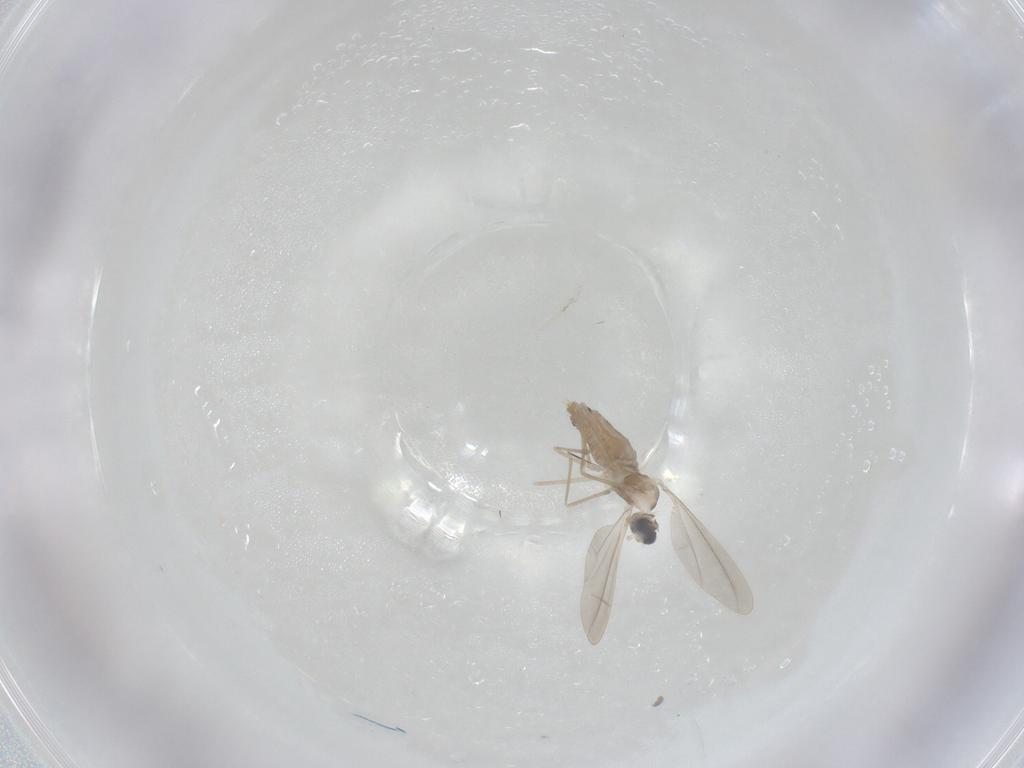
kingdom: Animalia
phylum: Arthropoda
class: Insecta
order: Diptera
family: Cecidomyiidae
